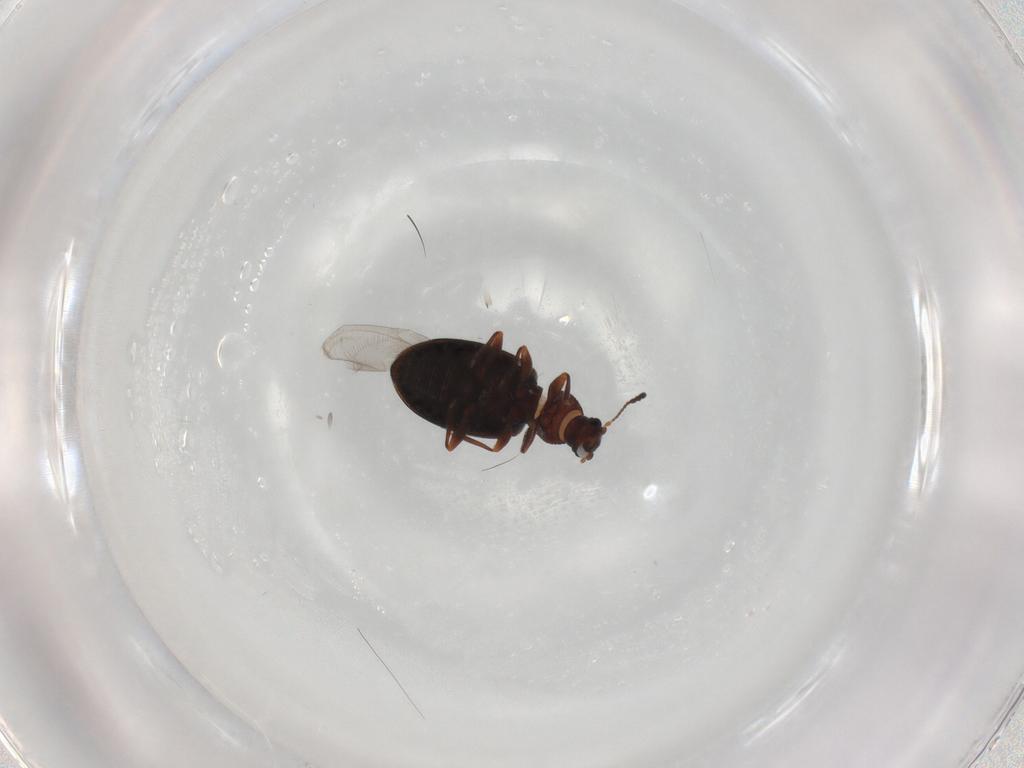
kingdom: Animalia
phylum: Arthropoda
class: Insecta
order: Coleoptera
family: Latridiidae
